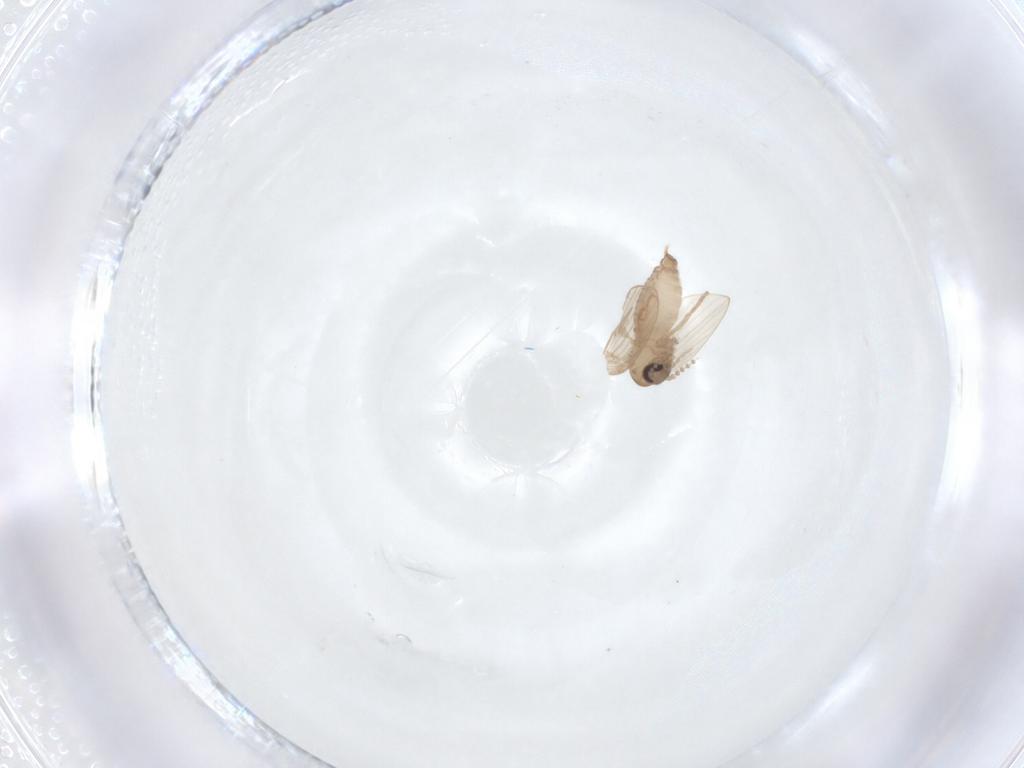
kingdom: Animalia
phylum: Arthropoda
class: Insecta
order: Diptera
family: Psychodidae
